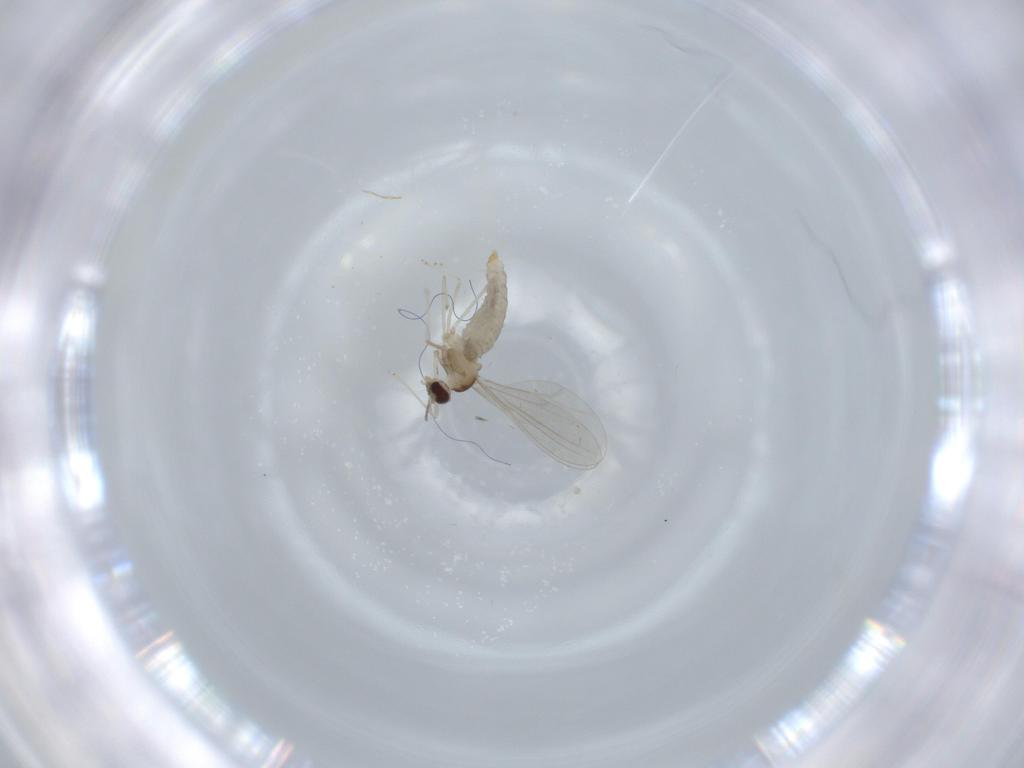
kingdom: Animalia
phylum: Arthropoda
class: Insecta
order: Diptera
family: Cecidomyiidae
